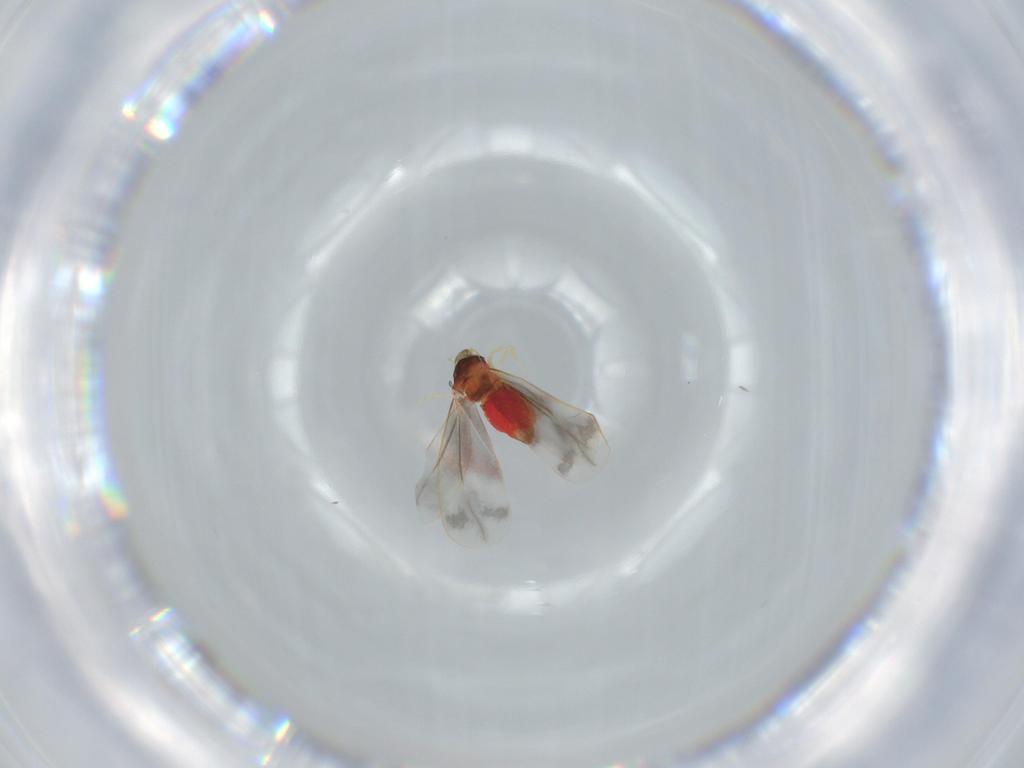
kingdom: Animalia
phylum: Arthropoda
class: Insecta
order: Hemiptera
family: Aleyrodidae
